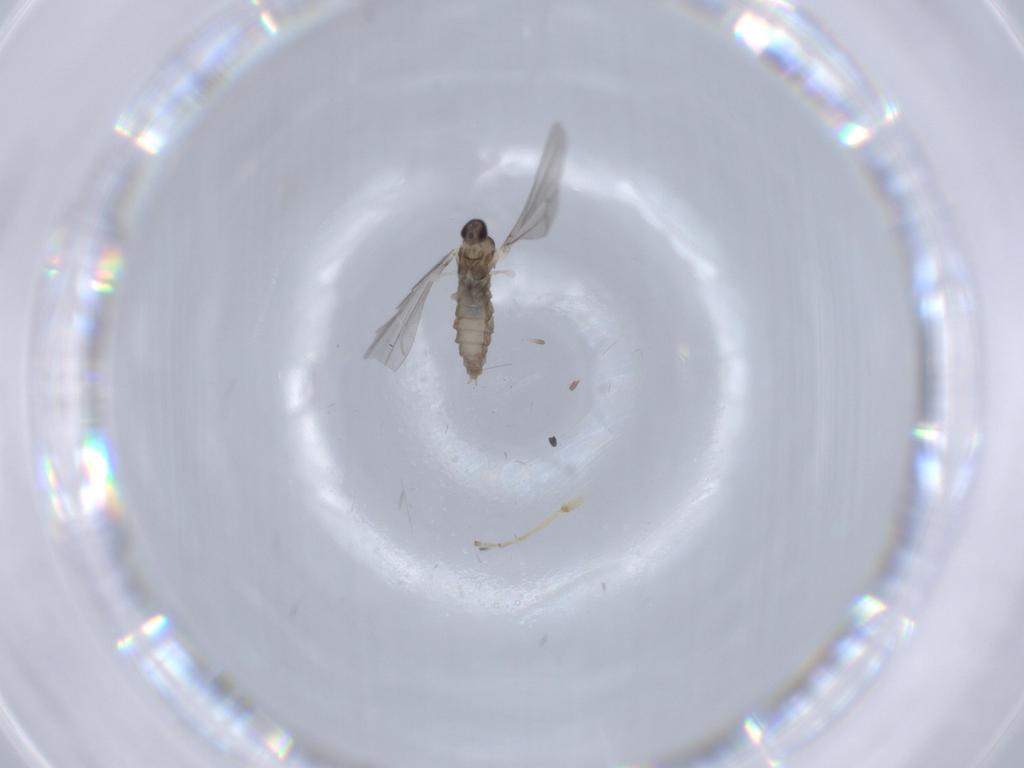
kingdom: Animalia
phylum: Arthropoda
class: Insecta
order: Diptera
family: Cecidomyiidae
